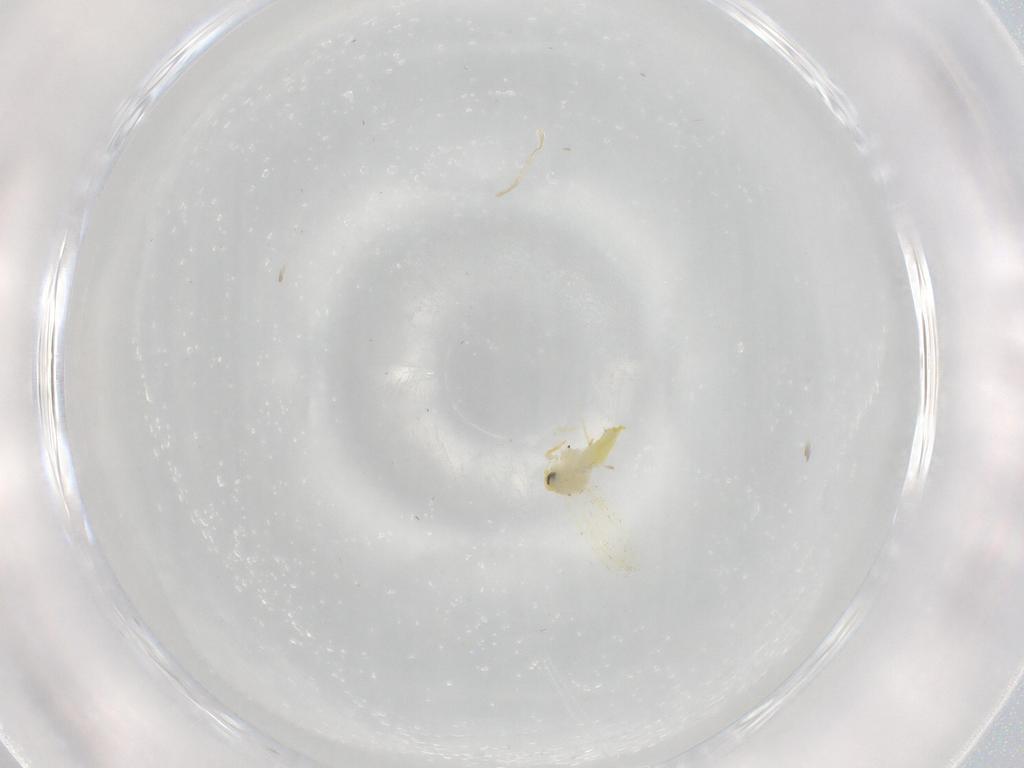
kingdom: Animalia
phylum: Arthropoda
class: Insecta
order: Hemiptera
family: Aleyrodidae
